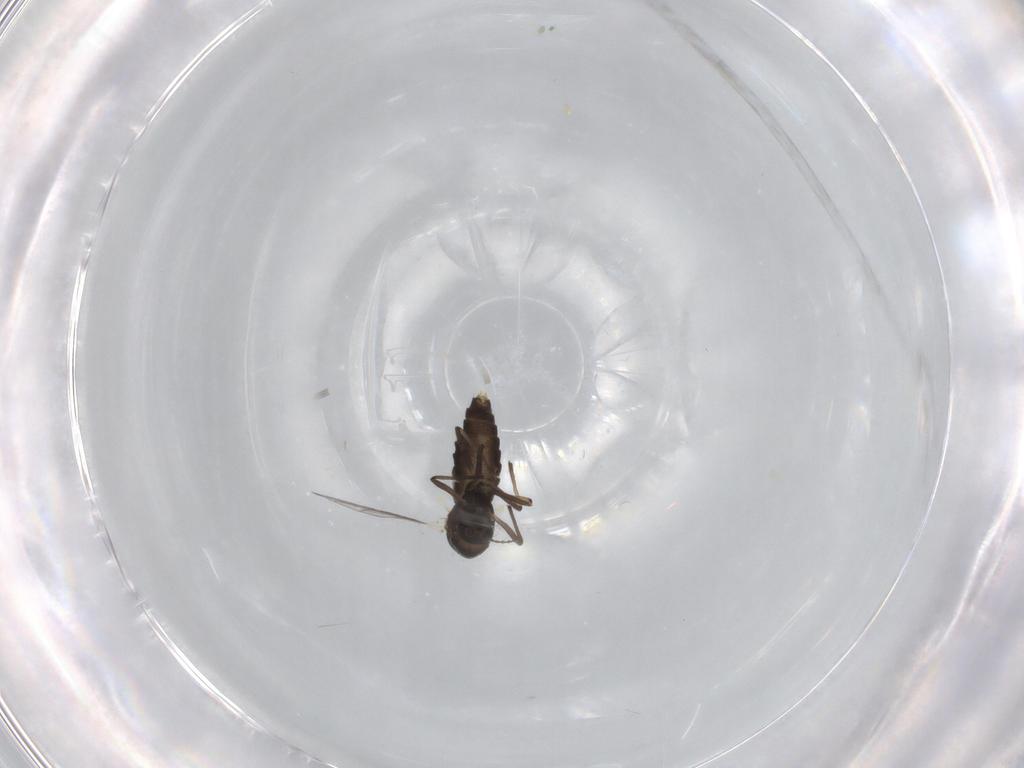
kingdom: Animalia
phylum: Arthropoda
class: Insecta
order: Diptera
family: Chironomidae
